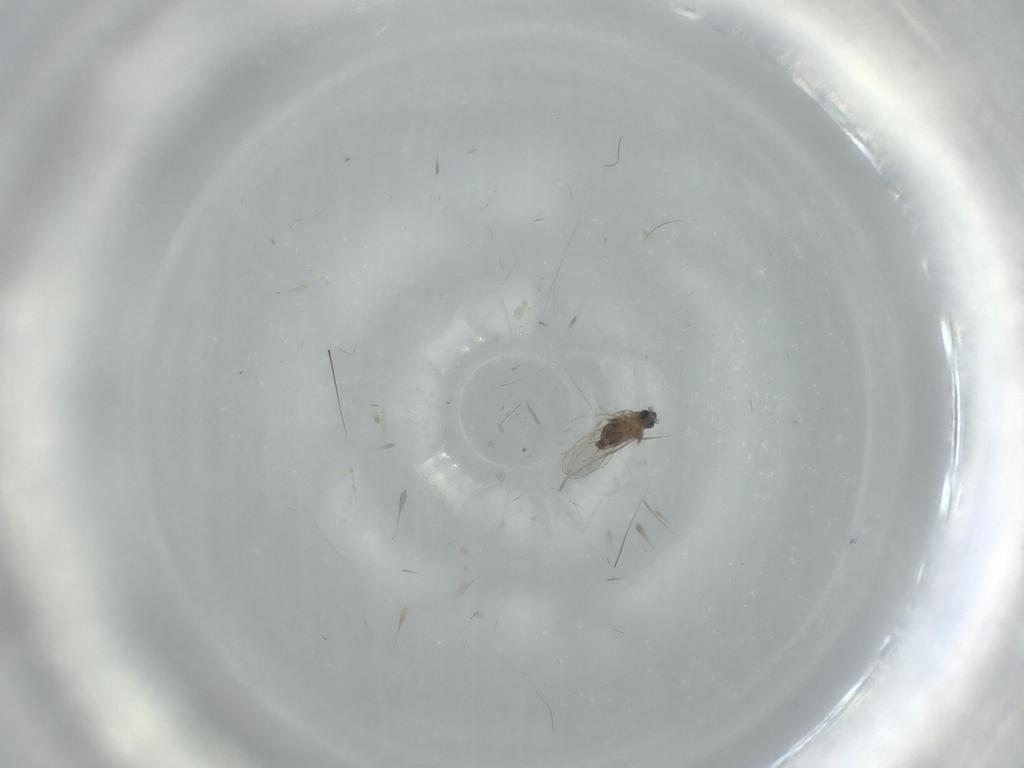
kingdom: Animalia
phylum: Arthropoda
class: Insecta
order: Diptera
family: Cecidomyiidae
